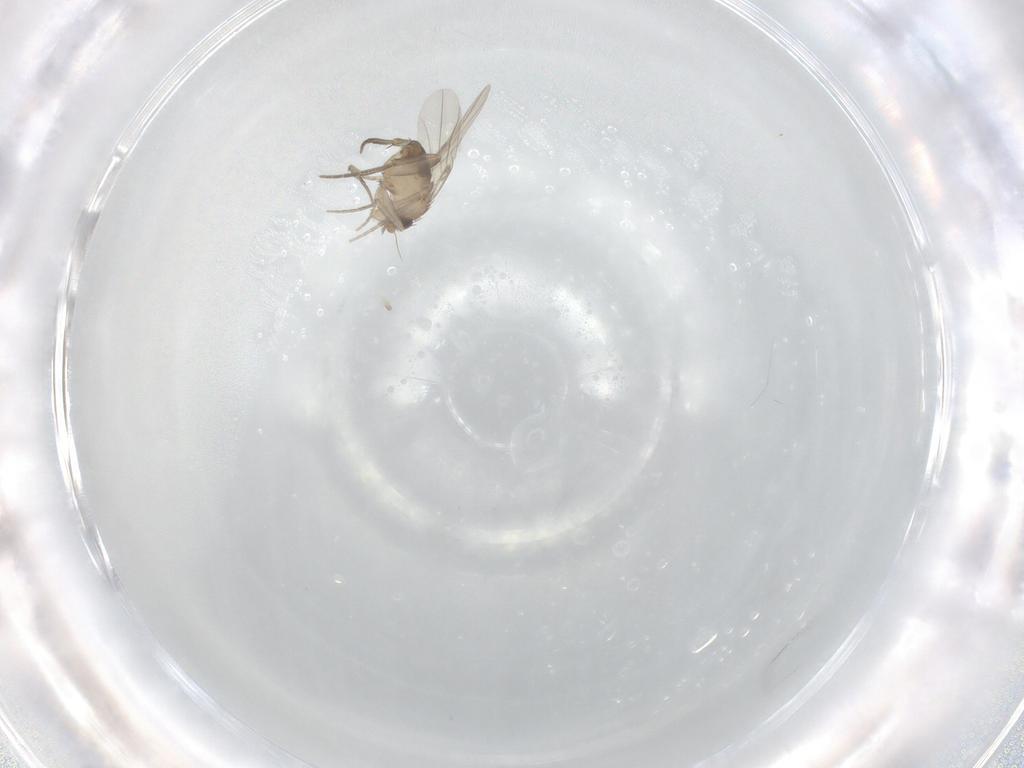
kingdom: Animalia
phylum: Arthropoda
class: Insecta
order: Diptera
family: Phoridae
